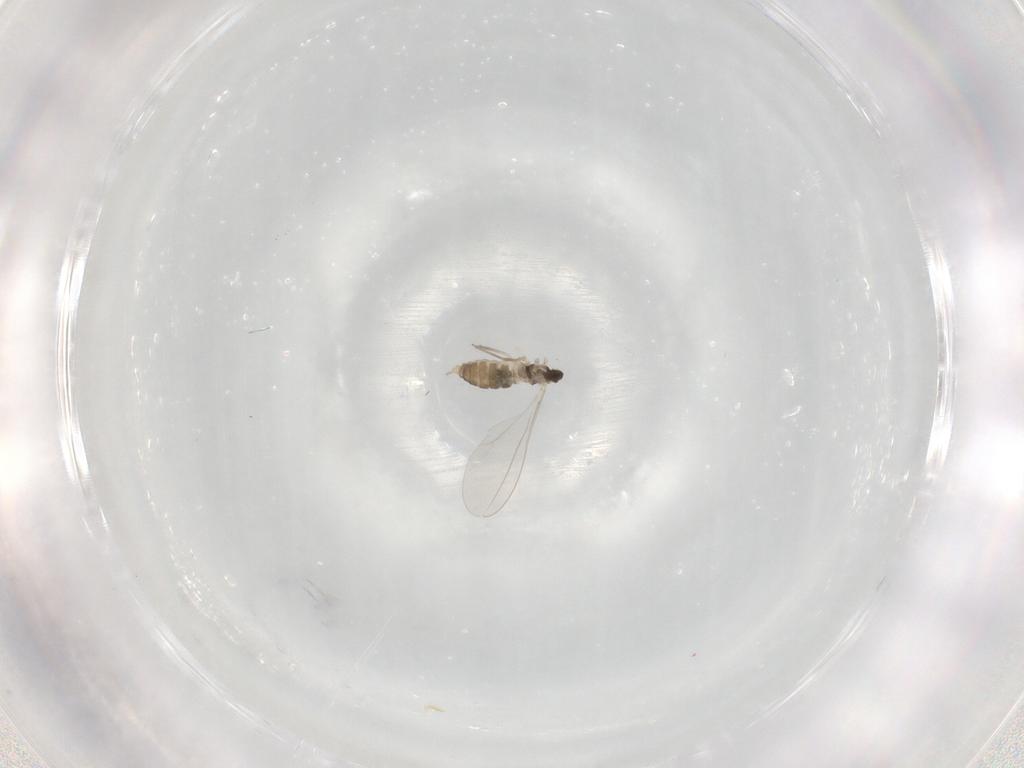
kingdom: Animalia
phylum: Arthropoda
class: Insecta
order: Diptera
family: Cecidomyiidae
